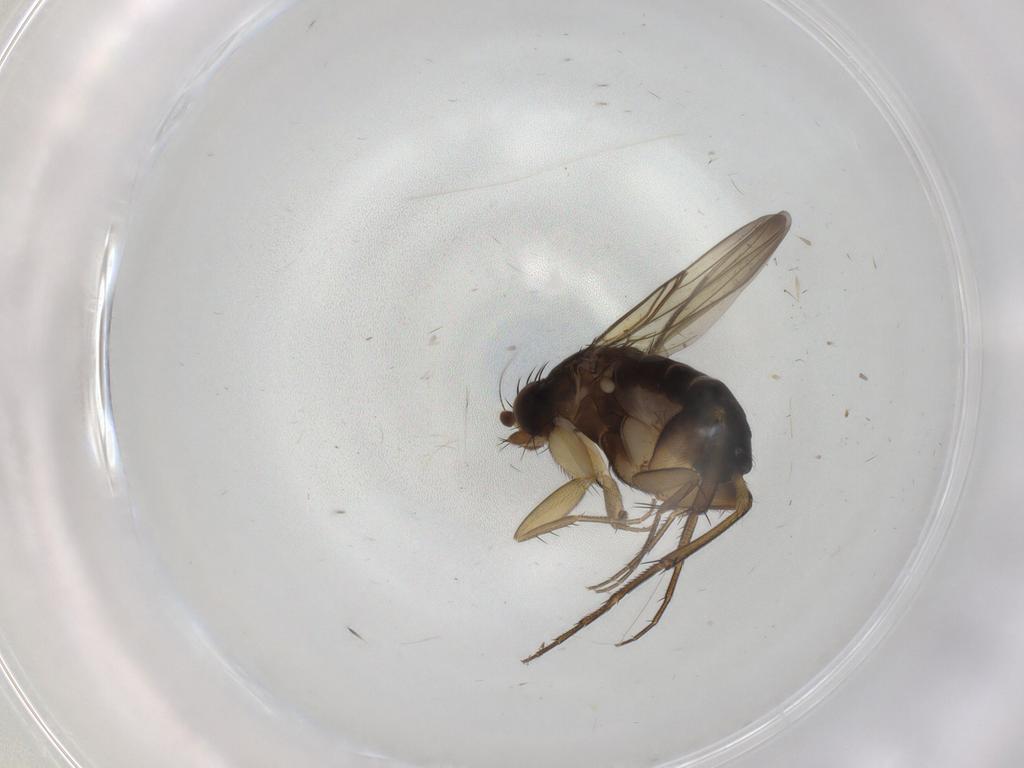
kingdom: Animalia
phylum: Arthropoda
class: Insecta
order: Diptera
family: Phoridae
